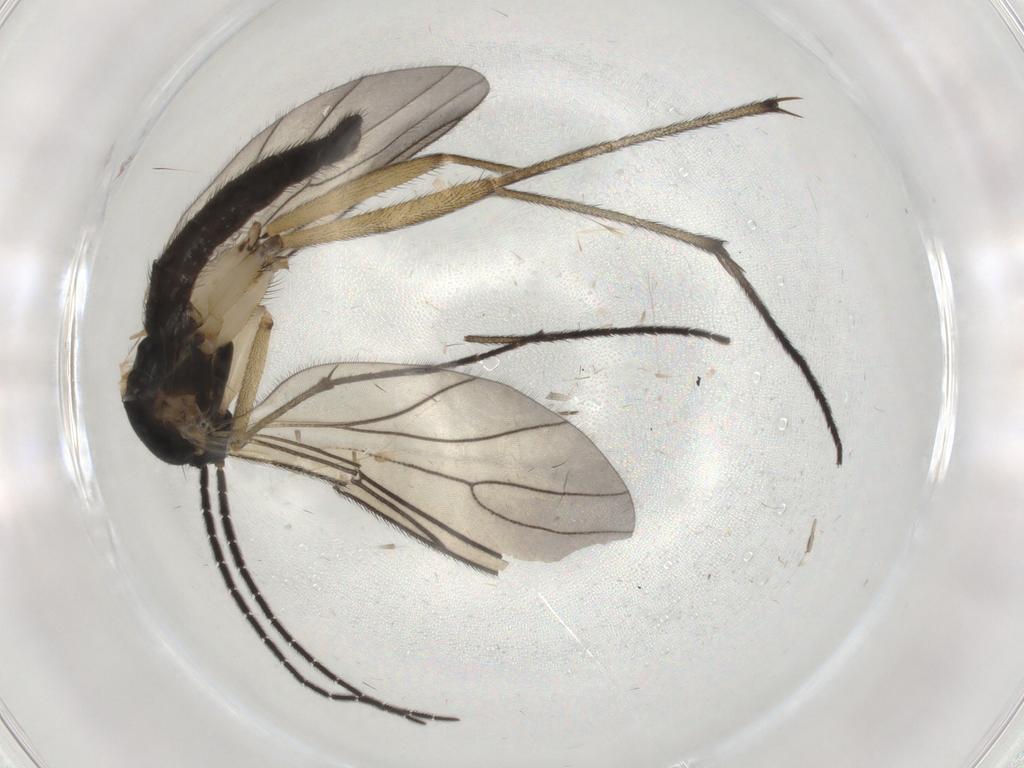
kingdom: Animalia
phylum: Arthropoda
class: Insecta
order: Diptera
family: Sciaridae
